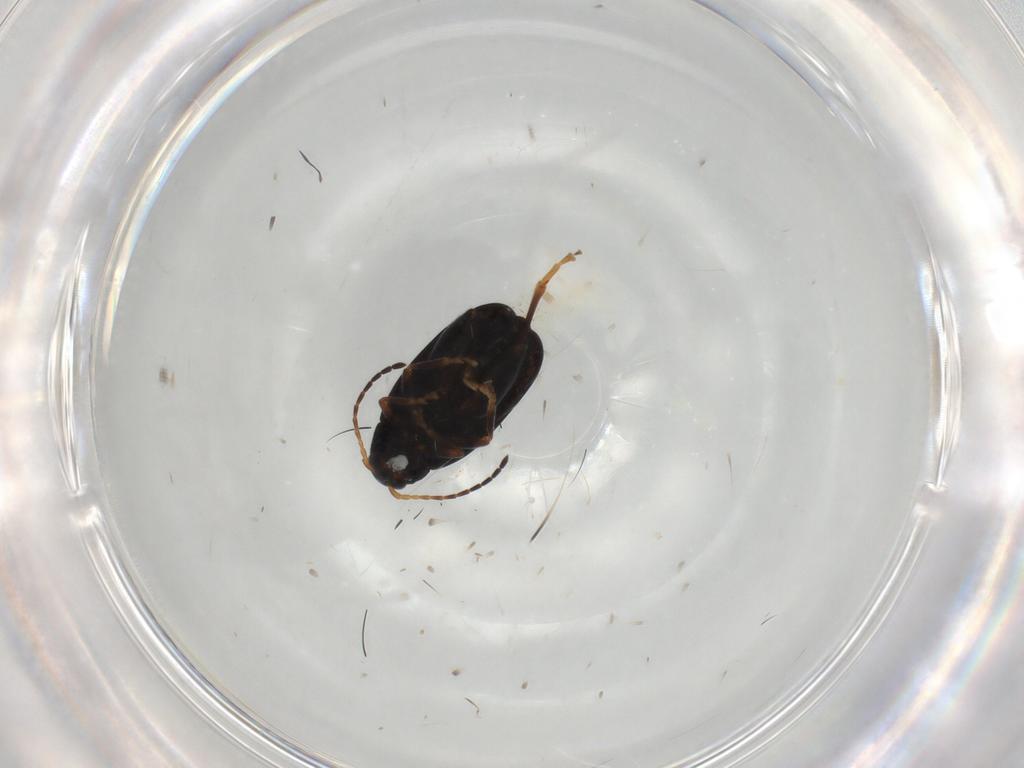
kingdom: Animalia
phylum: Arthropoda
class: Insecta
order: Coleoptera
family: Chrysomelidae
